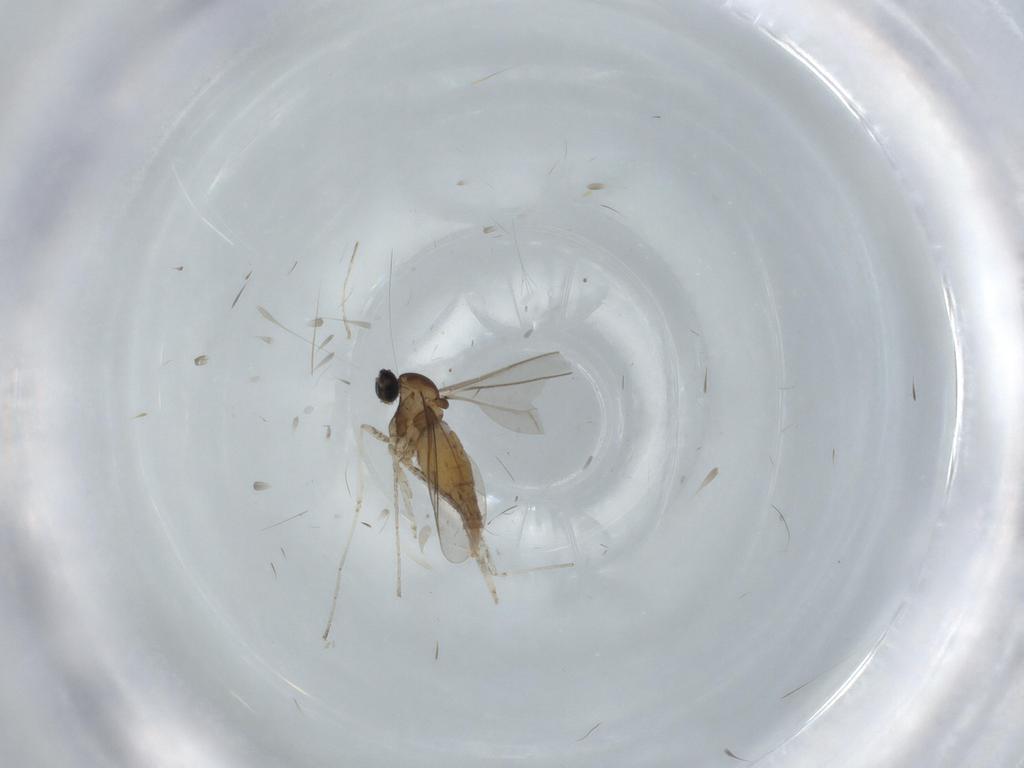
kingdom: Animalia
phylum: Arthropoda
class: Insecta
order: Diptera
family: Cecidomyiidae
